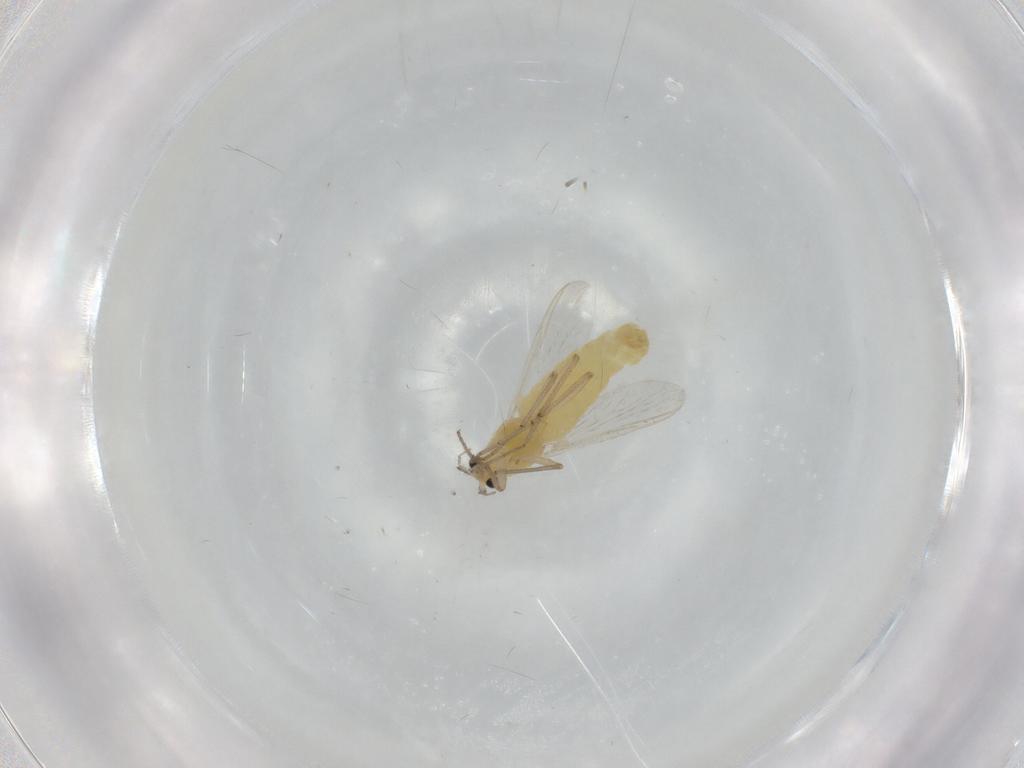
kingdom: Animalia
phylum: Arthropoda
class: Insecta
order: Diptera
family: Chironomidae
